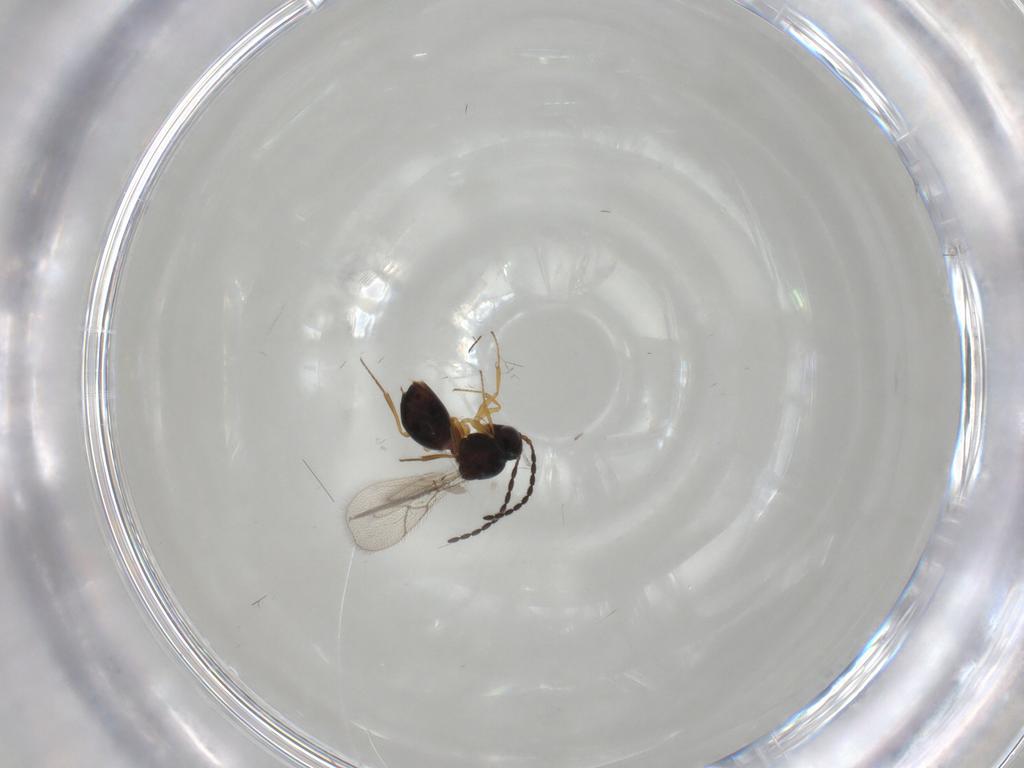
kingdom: Animalia
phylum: Arthropoda
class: Insecta
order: Hymenoptera
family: Figitidae
